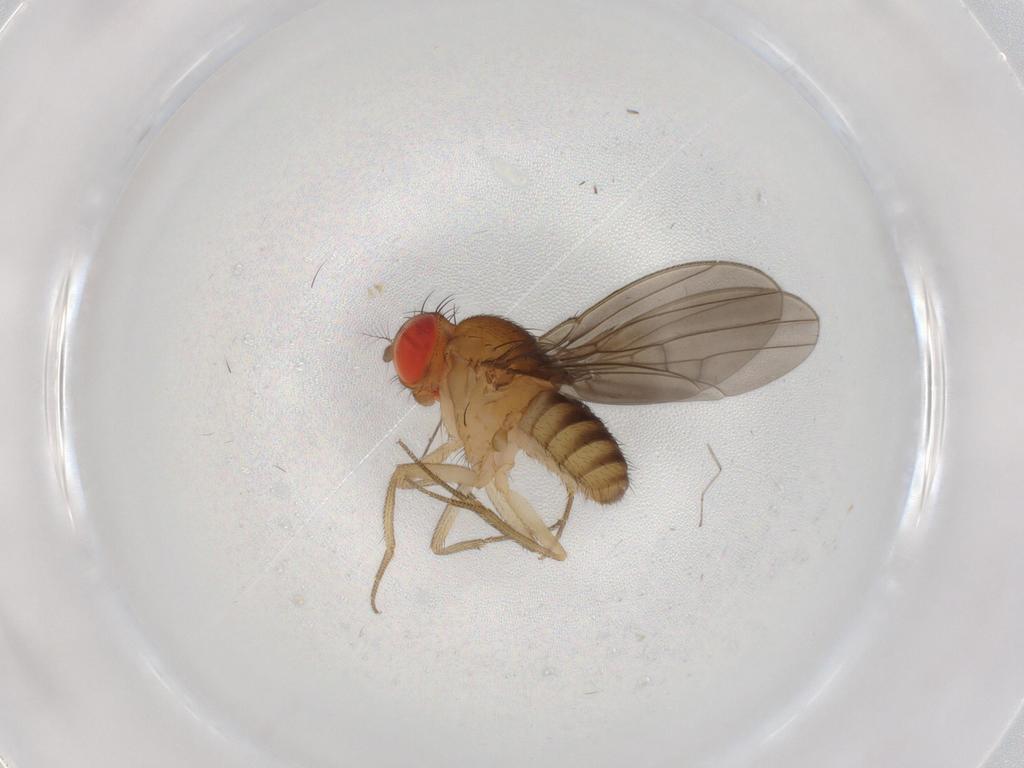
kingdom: Animalia
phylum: Arthropoda
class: Insecta
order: Diptera
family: Drosophilidae
